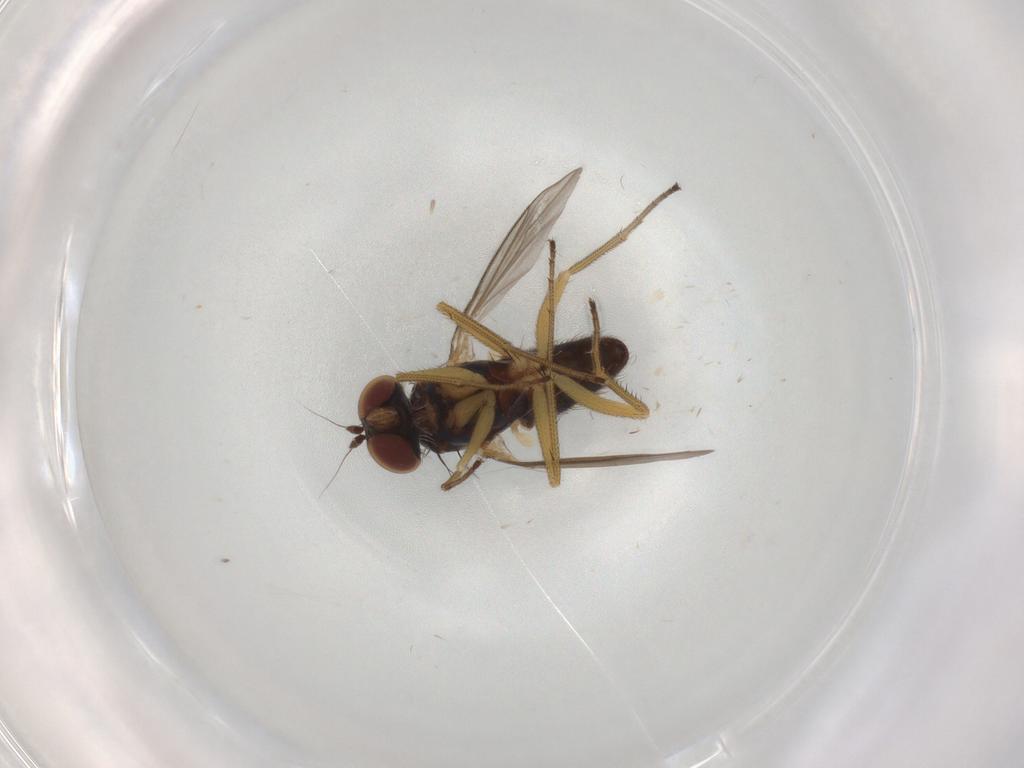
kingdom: Animalia
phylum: Arthropoda
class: Insecta
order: Diptera
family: Dolichopodidae
